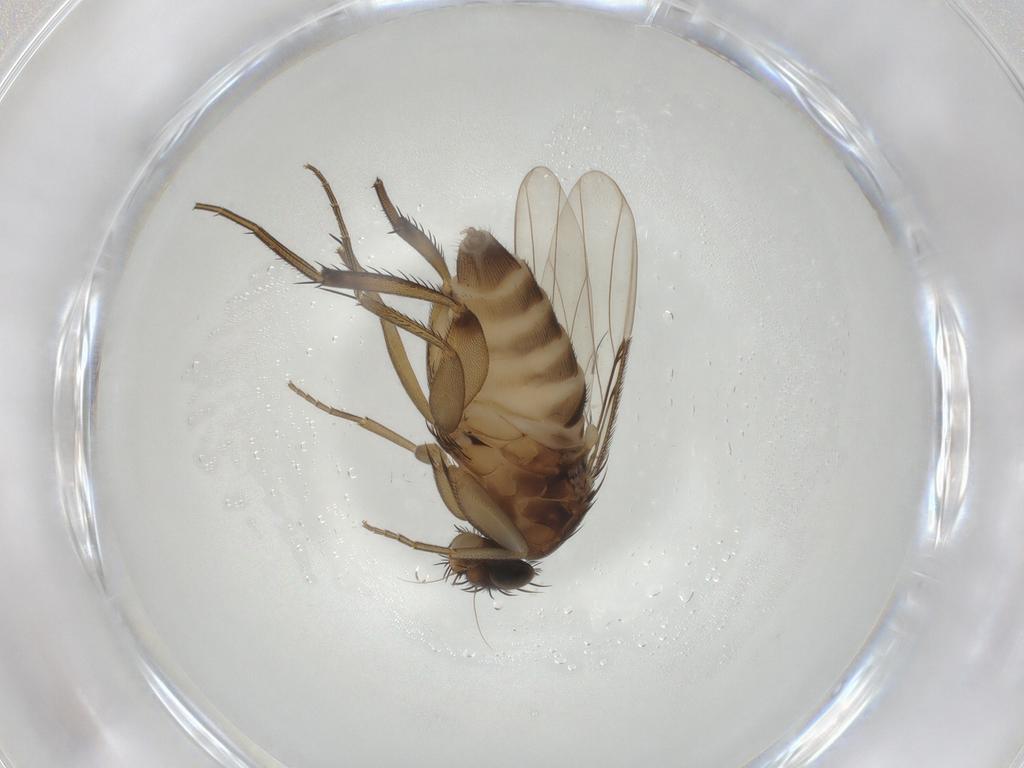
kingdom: Animalia
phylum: Arthropoda
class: Insecta
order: Diptera
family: Phoridae
